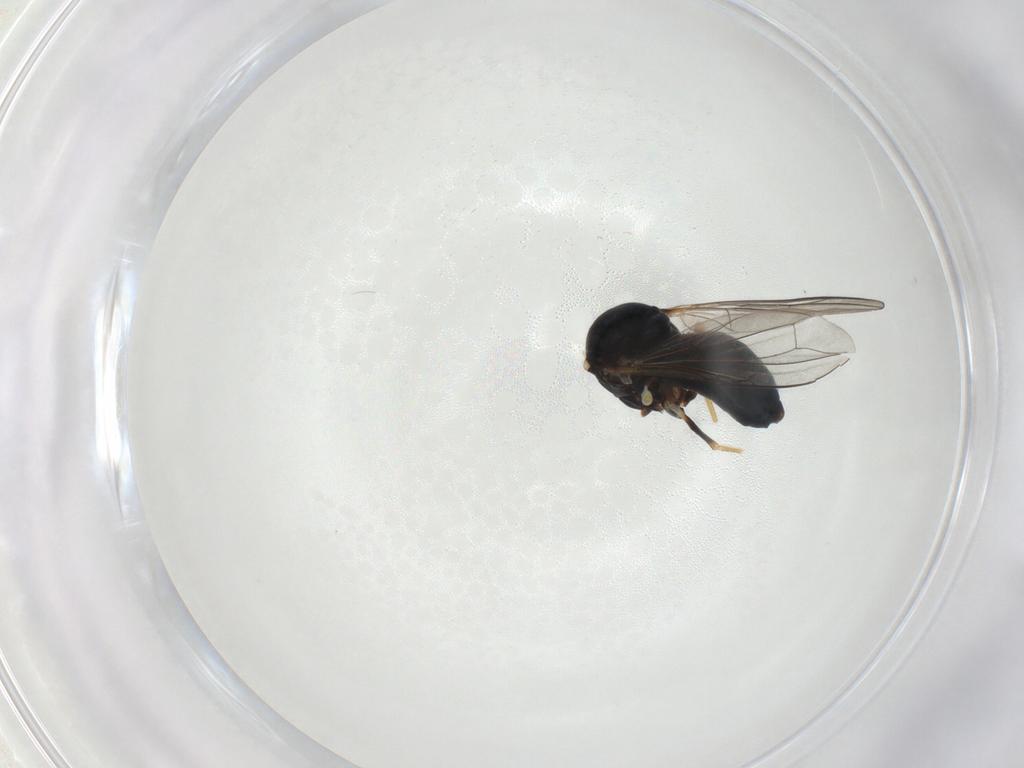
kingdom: Animalia
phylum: Arthropoda
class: Insecta
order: Diptera
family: Pipunculidae
